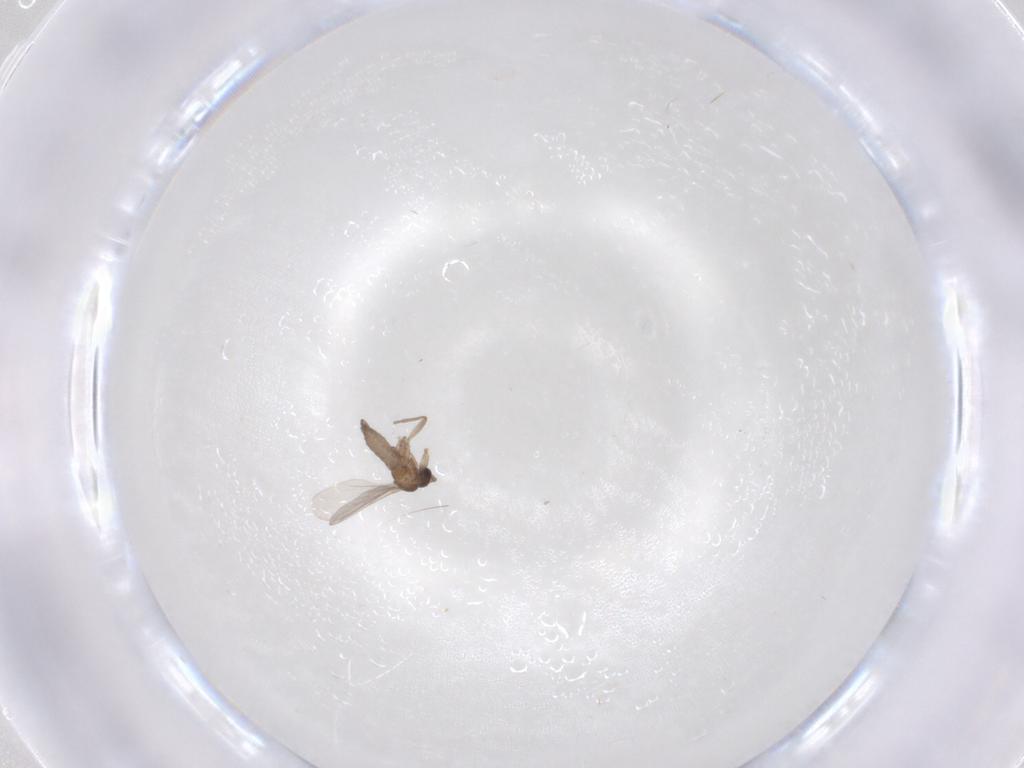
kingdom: Animalia
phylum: Arthropoda
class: Insecta
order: Diptera
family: Sciaridae
